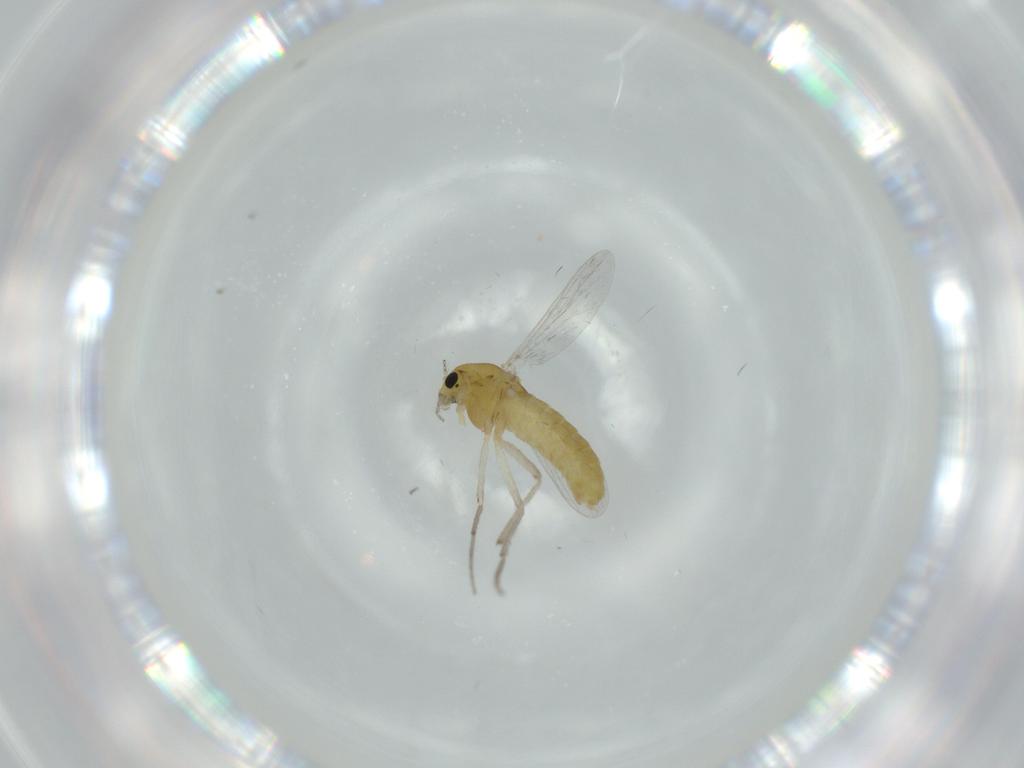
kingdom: Animalia
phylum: Arthropoda
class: Insecta
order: Diptera
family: Chironomidae
